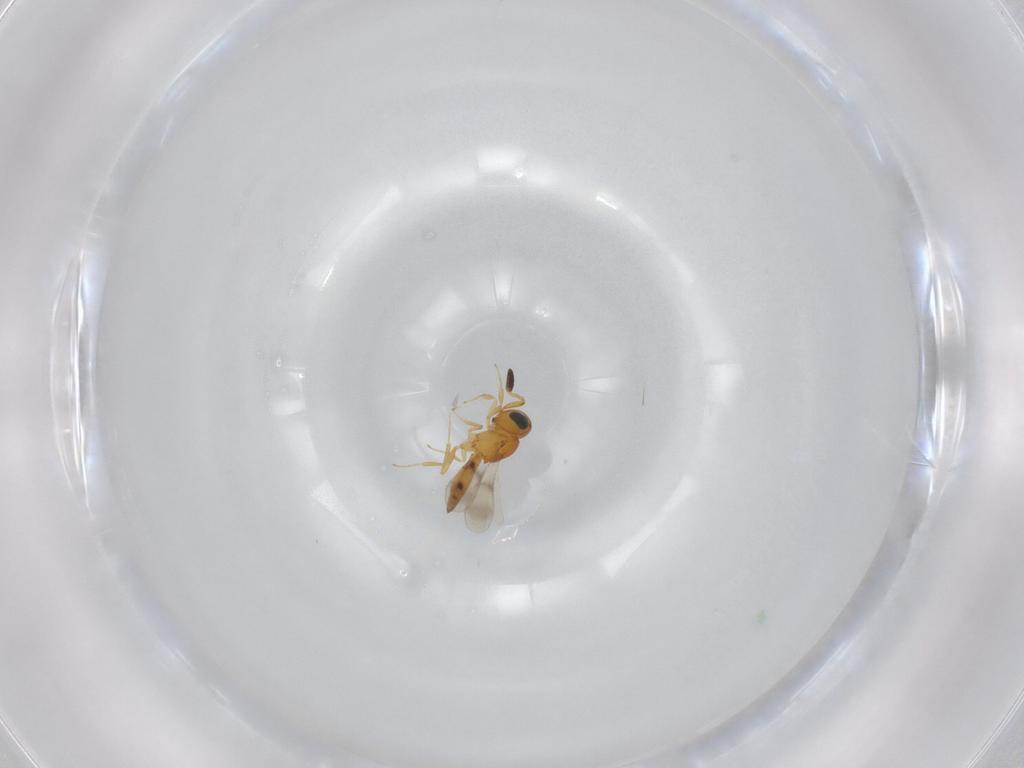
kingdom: Animalia
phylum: Arthropoda
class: Insecta
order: Hymenoptera
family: Scelionidae
